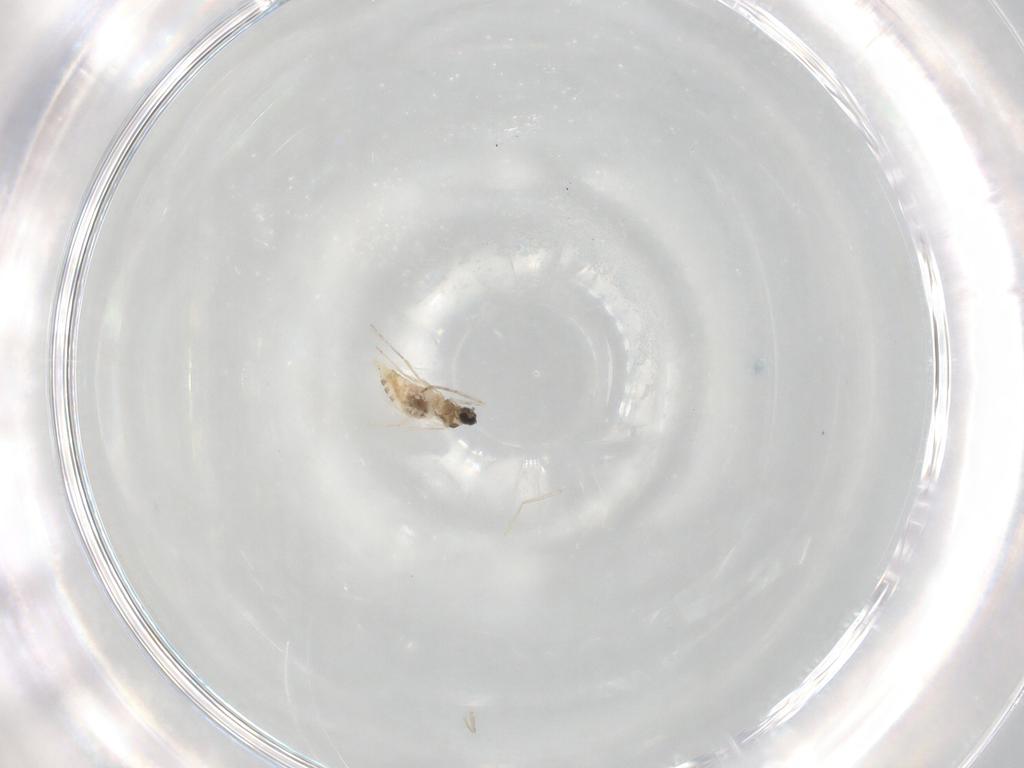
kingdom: Animalia
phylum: Arthropoda
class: Insecta
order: Diptera
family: Cecidomyiidae
